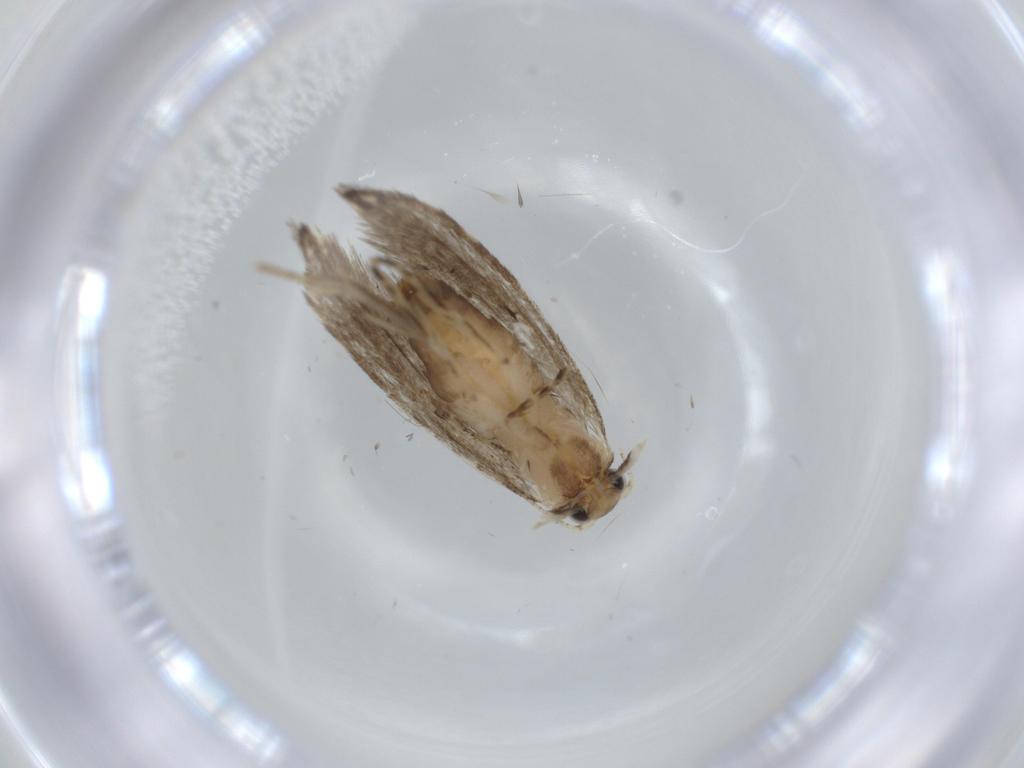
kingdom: Animalia
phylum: Arthropoda
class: Insecta
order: Lepidoptera
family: Tineidae
